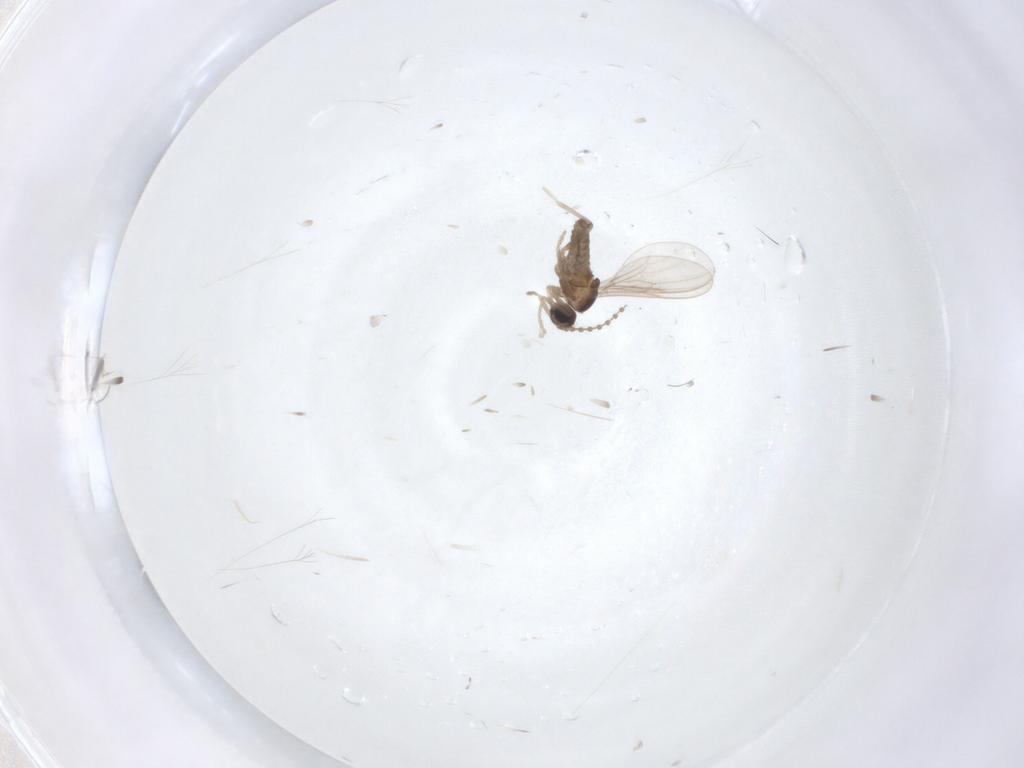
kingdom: Animalia
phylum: Arthropoda
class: Insecta
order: Diptera
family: Cecidomyiidae
